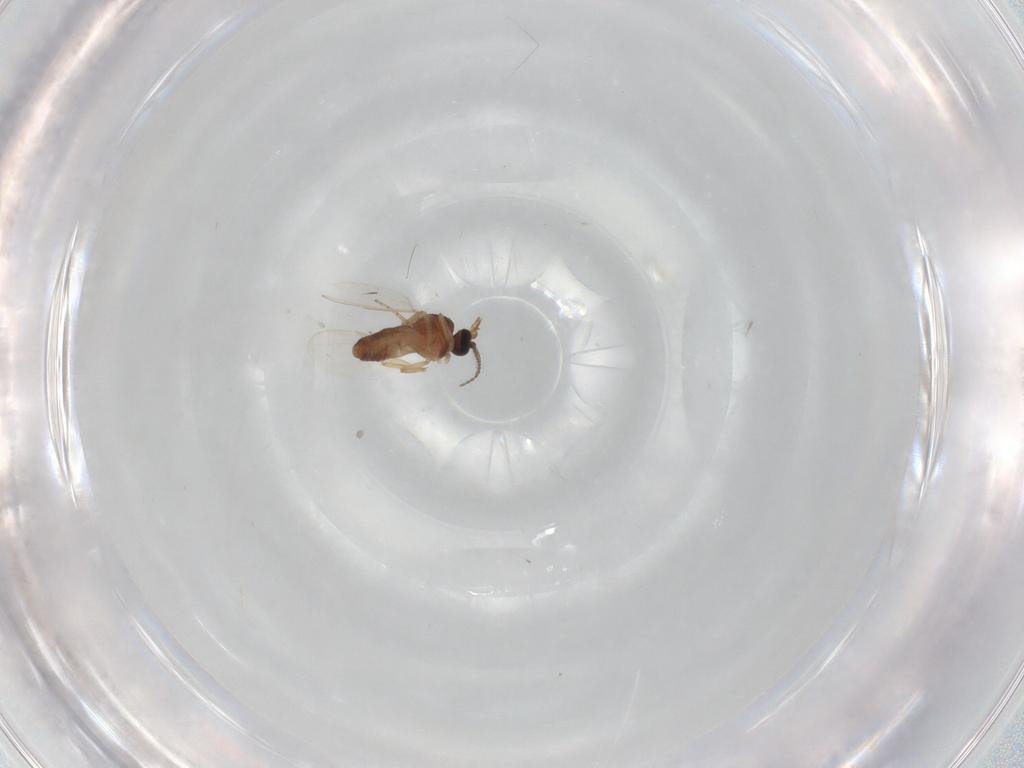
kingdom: Animalia
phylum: Arthropoda
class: Insecta
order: Diptera
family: Ceratopogonidae
